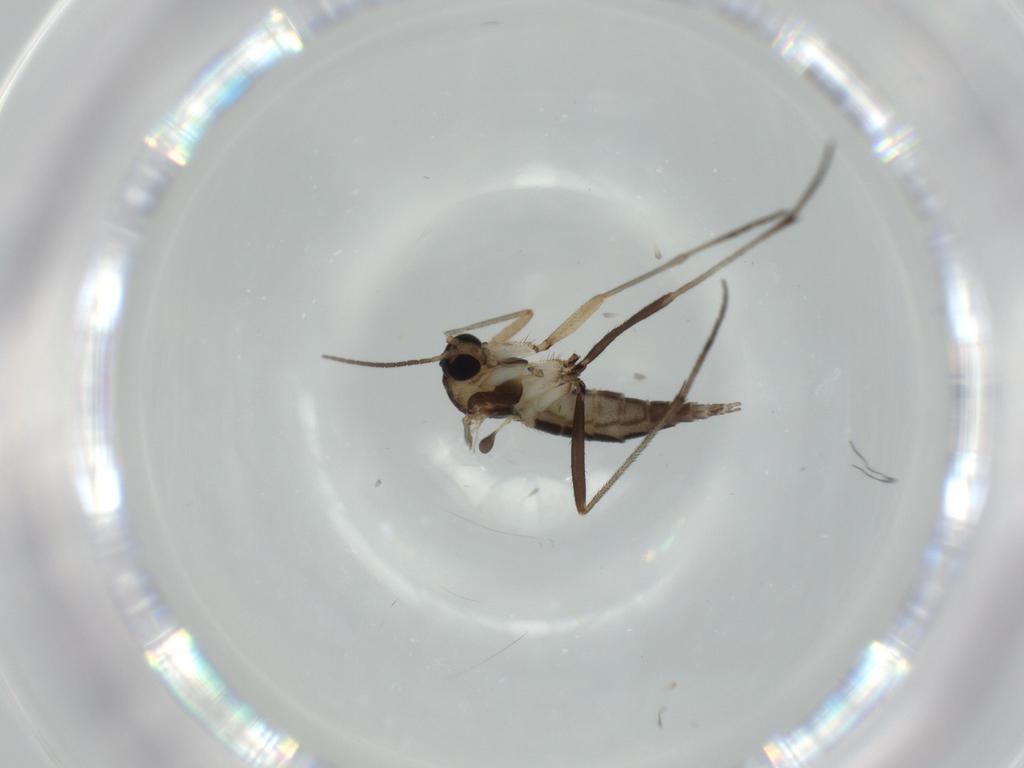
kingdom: Animalia
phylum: Arthropoda
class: Insecta
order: Diptera
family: Sciaridae
